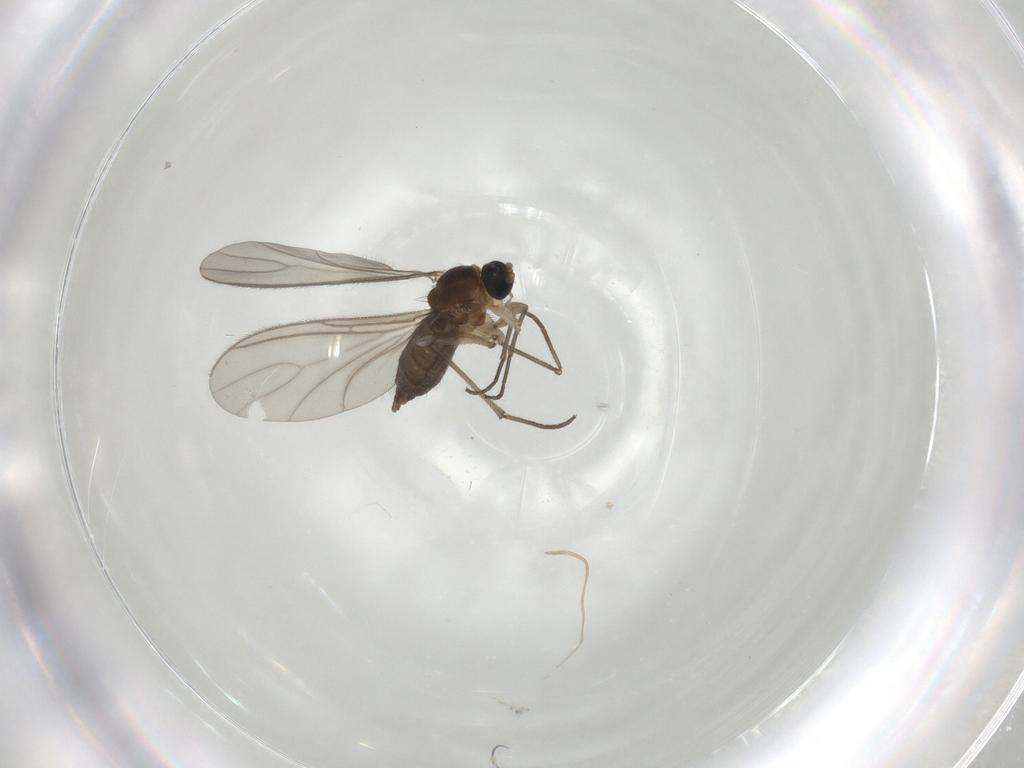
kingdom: Animalia
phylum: Arthropoda
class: Insecta
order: Diptera
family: Sciaridae
